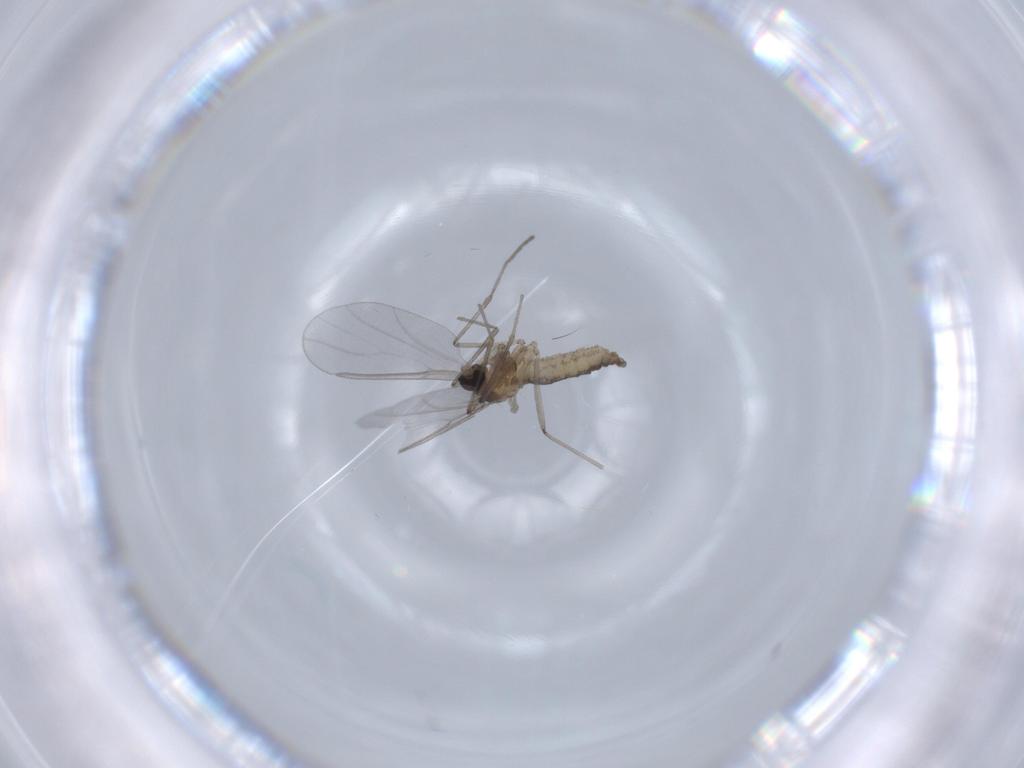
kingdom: Animalia
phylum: Arthropoda
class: Insecta
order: Diptera
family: Cecidomyiidae
